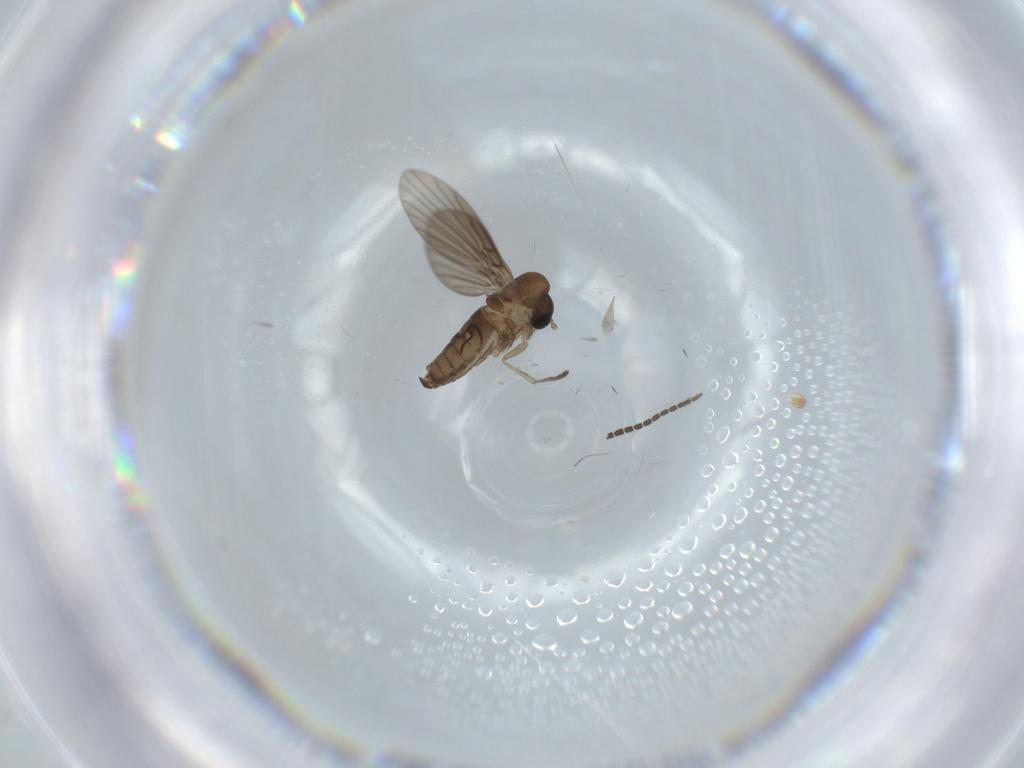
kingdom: Animalia
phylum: Arthropoda
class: Insecta
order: Diptera
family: Sciaridae
